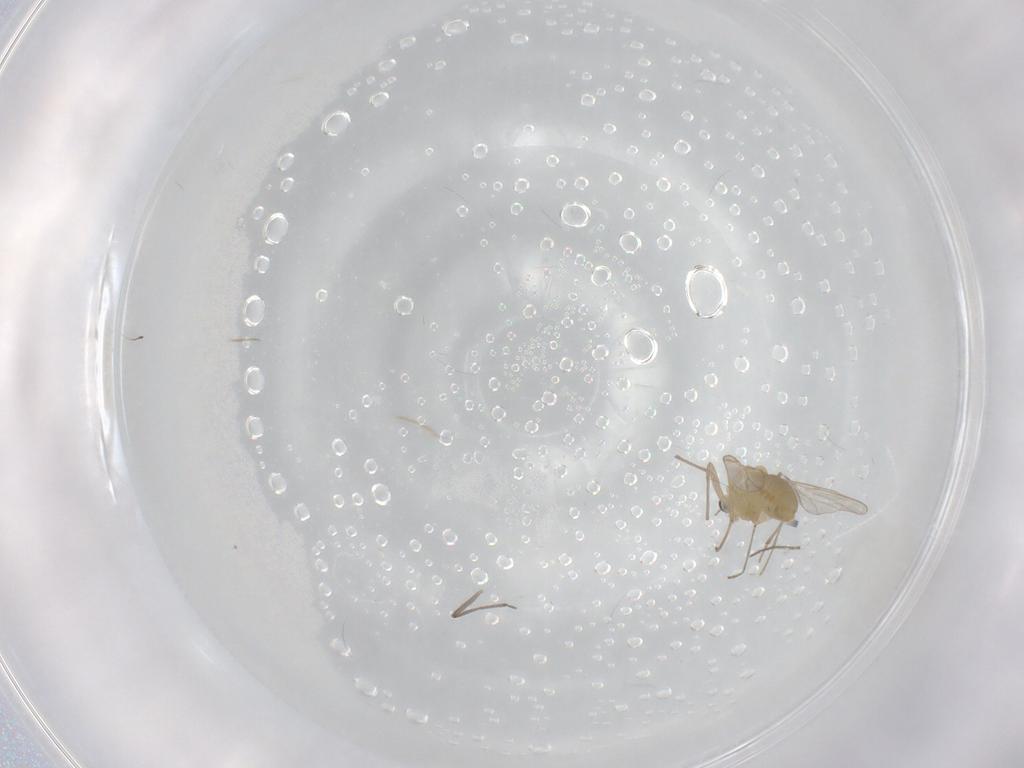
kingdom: Animalia
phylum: Arthropoda
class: Insecta
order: Diptera
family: Chironomidae
